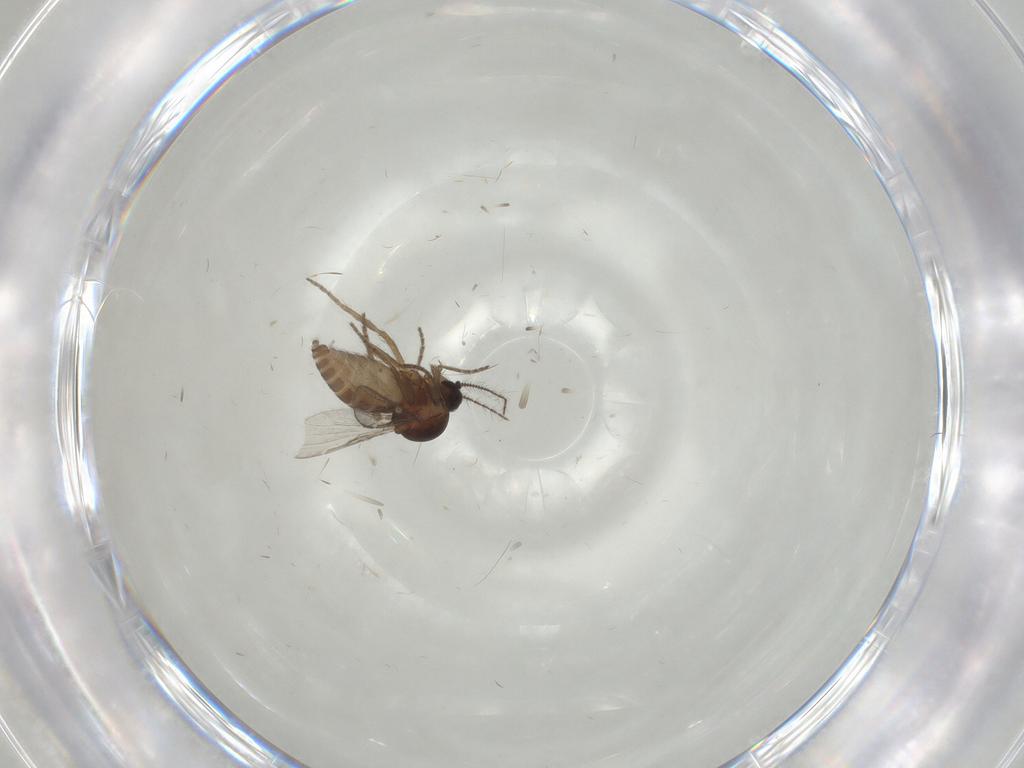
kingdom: Animalia
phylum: Arthropoda
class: Insecta
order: Diptera
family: Ceratopogonidae
